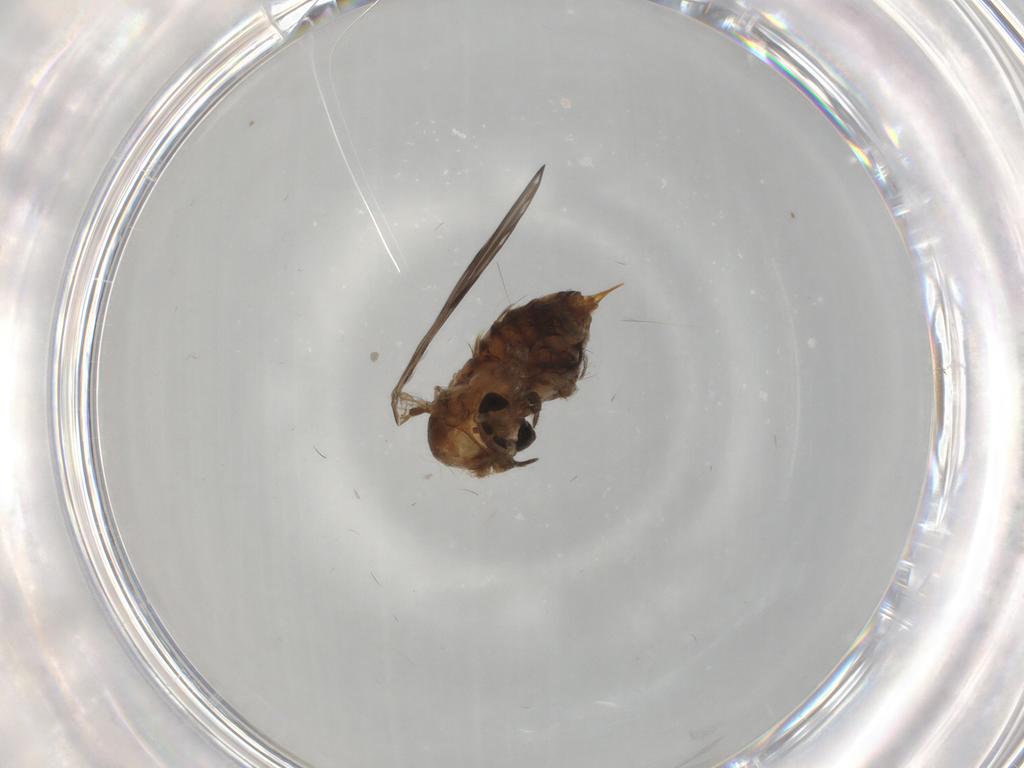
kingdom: Animalia
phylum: Arthropoda
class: Insecta
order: Diptera
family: Psychodidae
